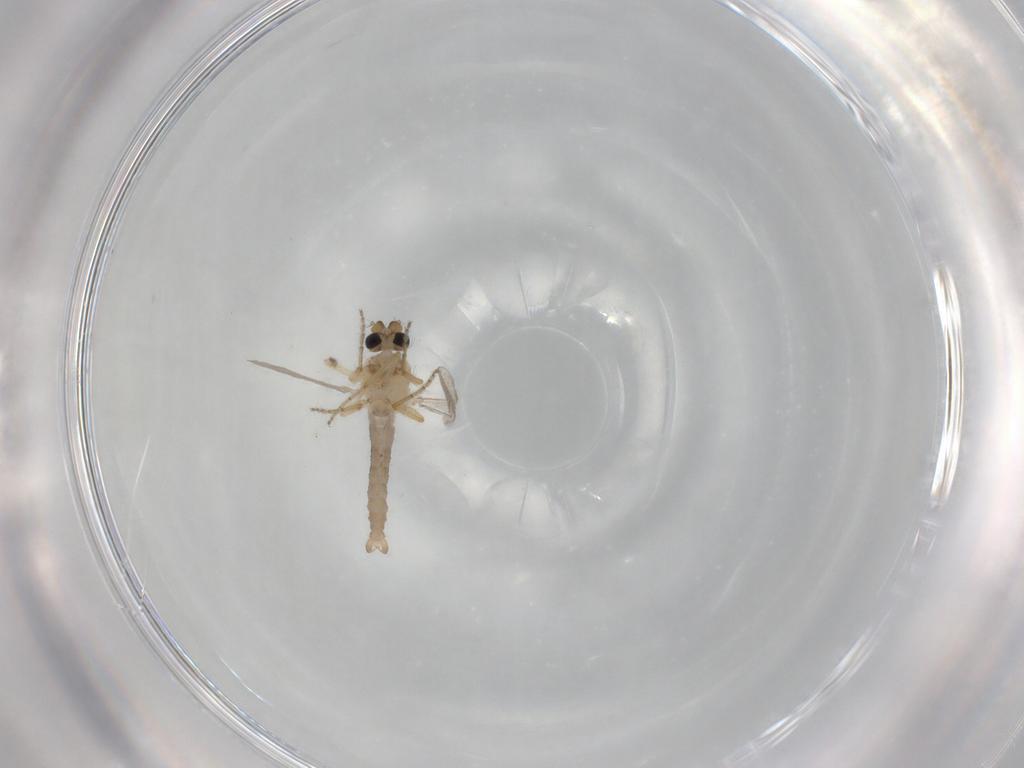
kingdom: Animalia
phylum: Arthropoda
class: Insecta
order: Diptera
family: Ceratopogonidae
